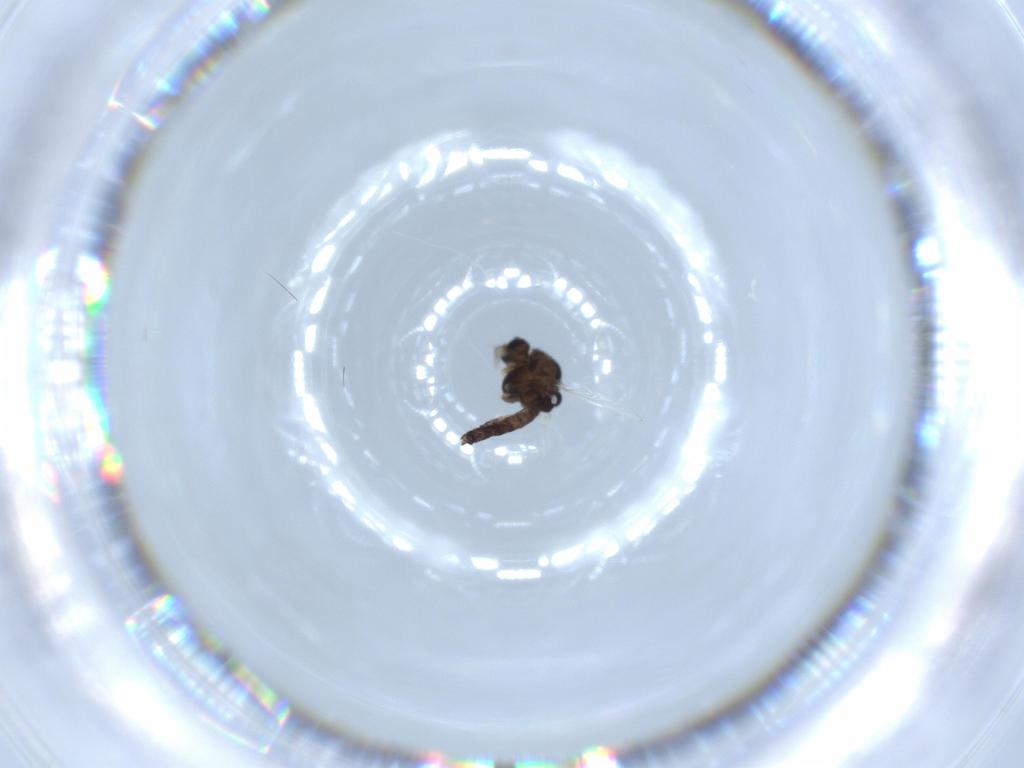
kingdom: Animalia
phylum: Arthropoda
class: Insecta
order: Diptera
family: Chironomidae
